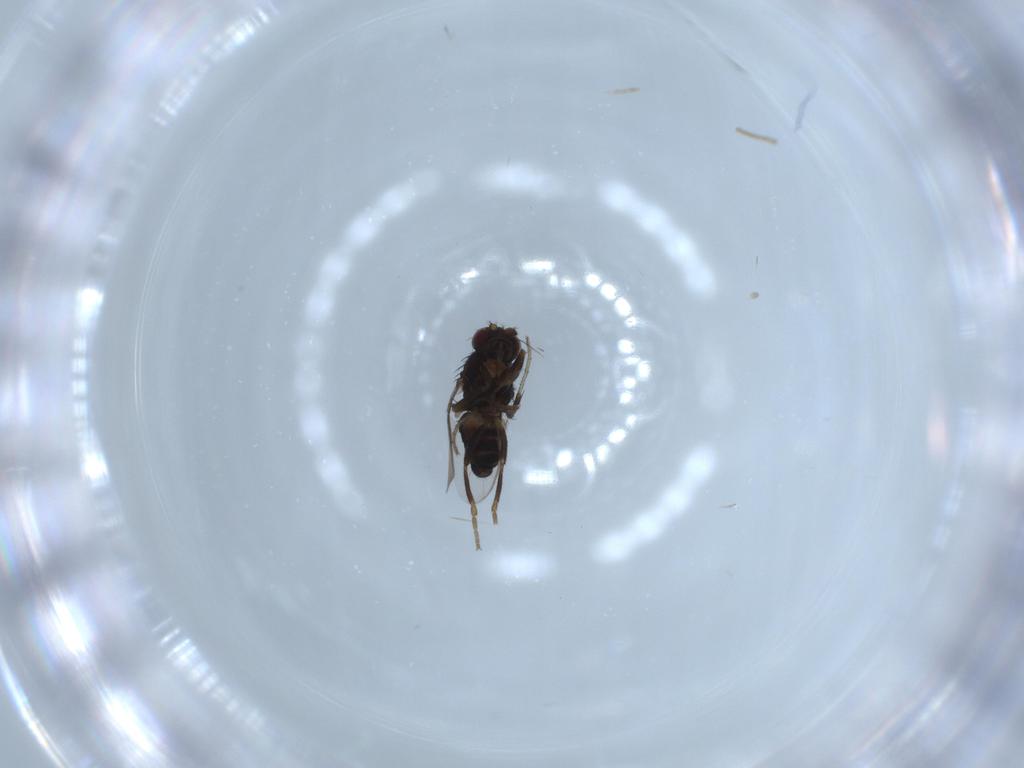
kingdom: Animalia
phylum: Arthropoda
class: Insecta
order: Diptera
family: Sphaeroceridae
